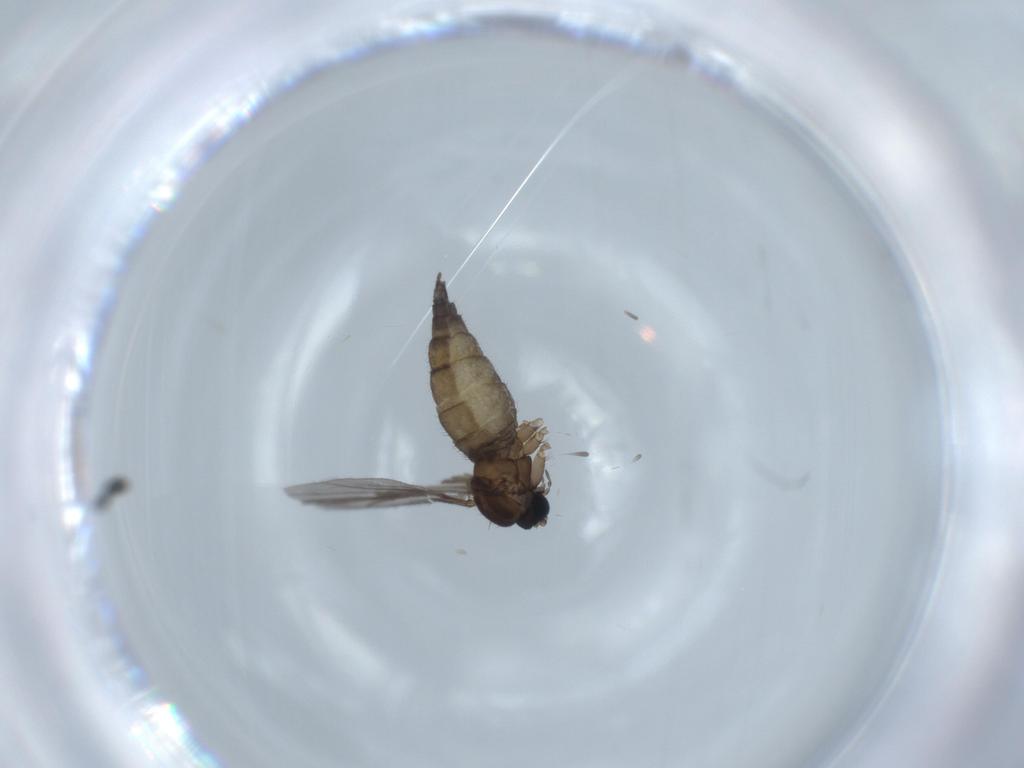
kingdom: Animalia
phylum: Arthropoda
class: Insecta
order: Diptera
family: Sciaridae
